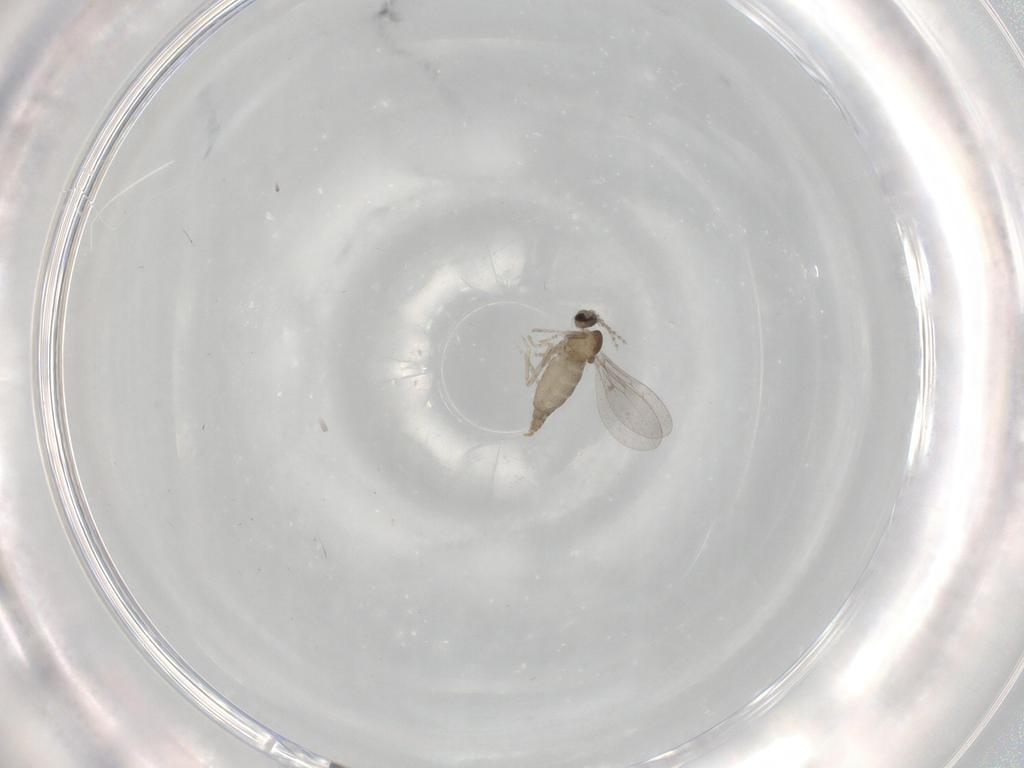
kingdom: Animalia
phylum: Arthropoda
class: Insecta
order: Diptera
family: Cecidomyiidae
